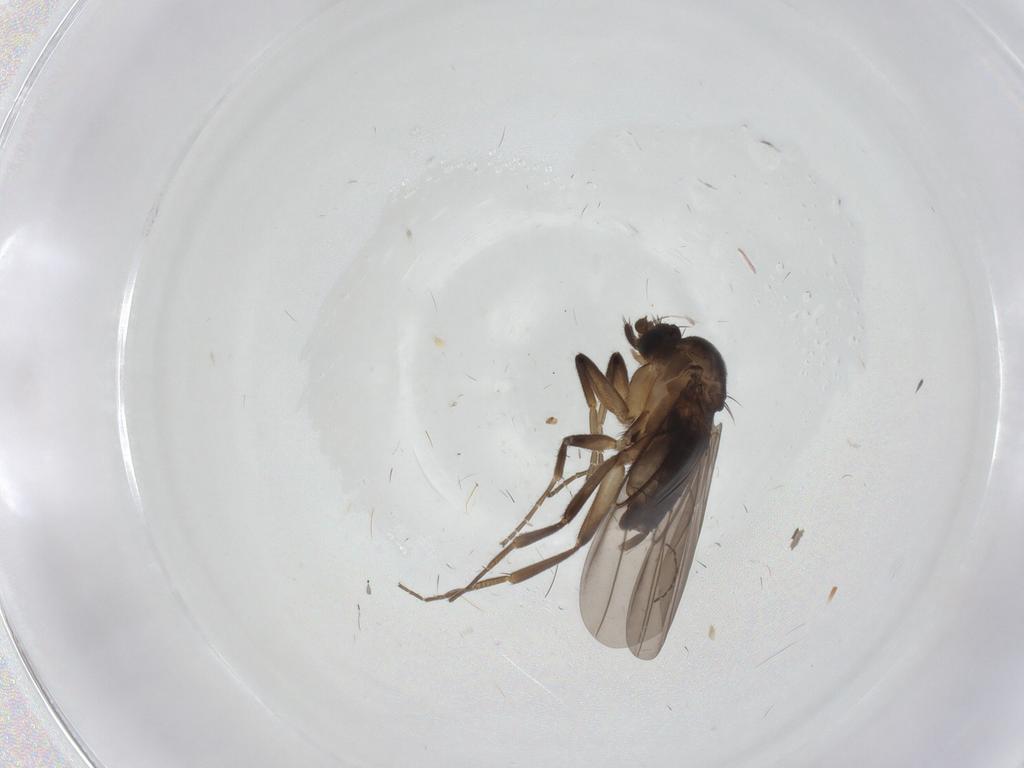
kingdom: Animalia
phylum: Arthropoda
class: Insecta
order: Diptera
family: Phoridae
